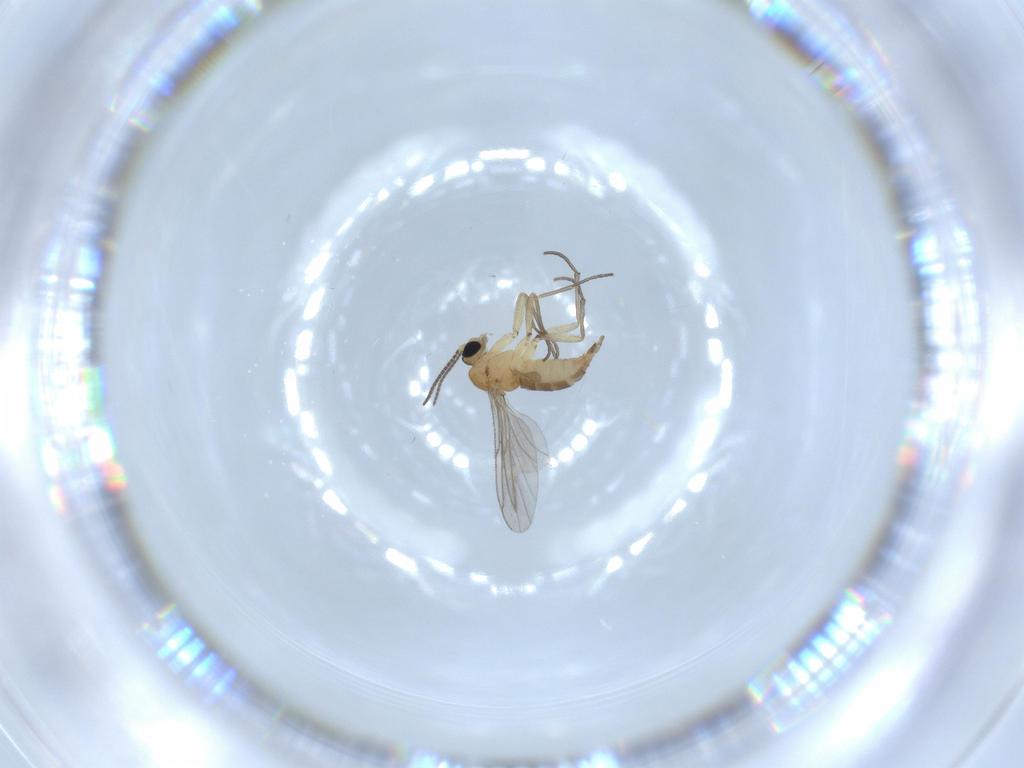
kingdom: Animalia
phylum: Arthropoda
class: Insecta
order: Diptera
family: Sciaridae
